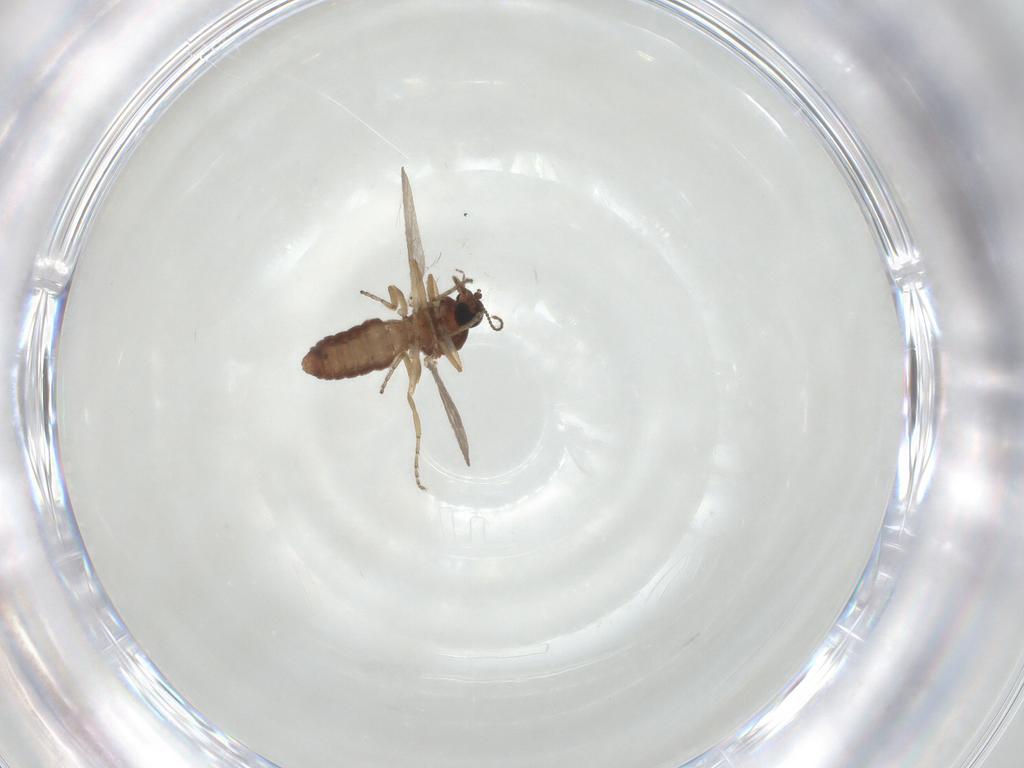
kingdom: Animalia
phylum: Arthropoda
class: Insecta
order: Diptera
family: Ceratopogonidae
